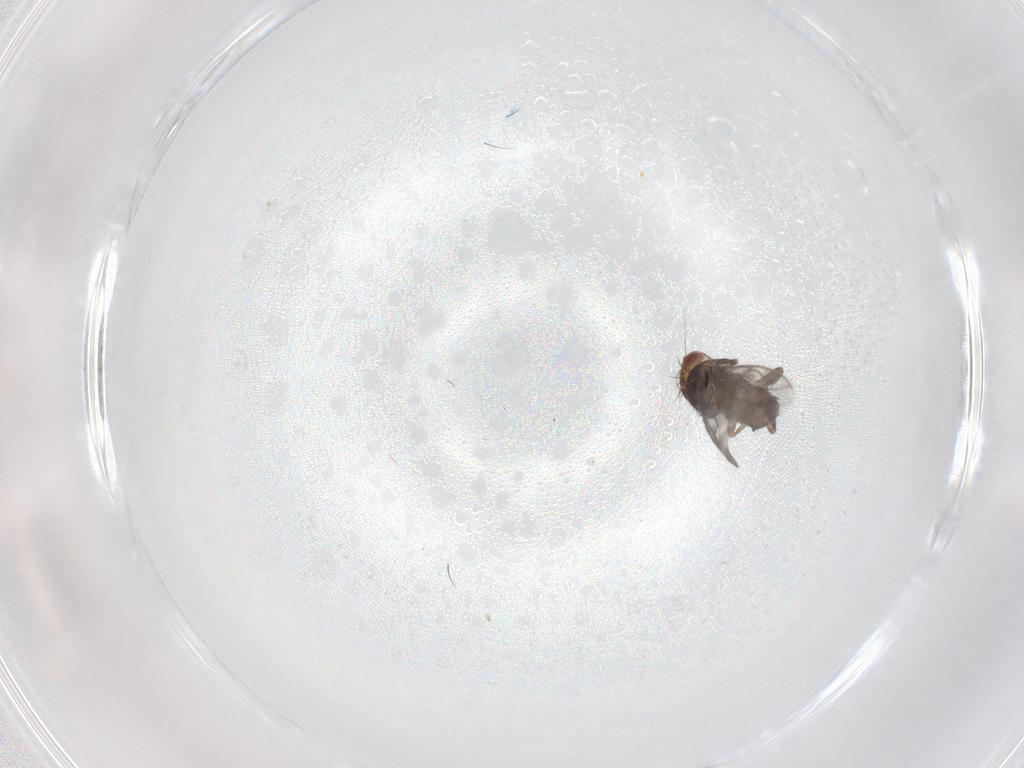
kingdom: Animalia
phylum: Arthropoda
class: Insecta
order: Diptera
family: Sphaeroceridae
